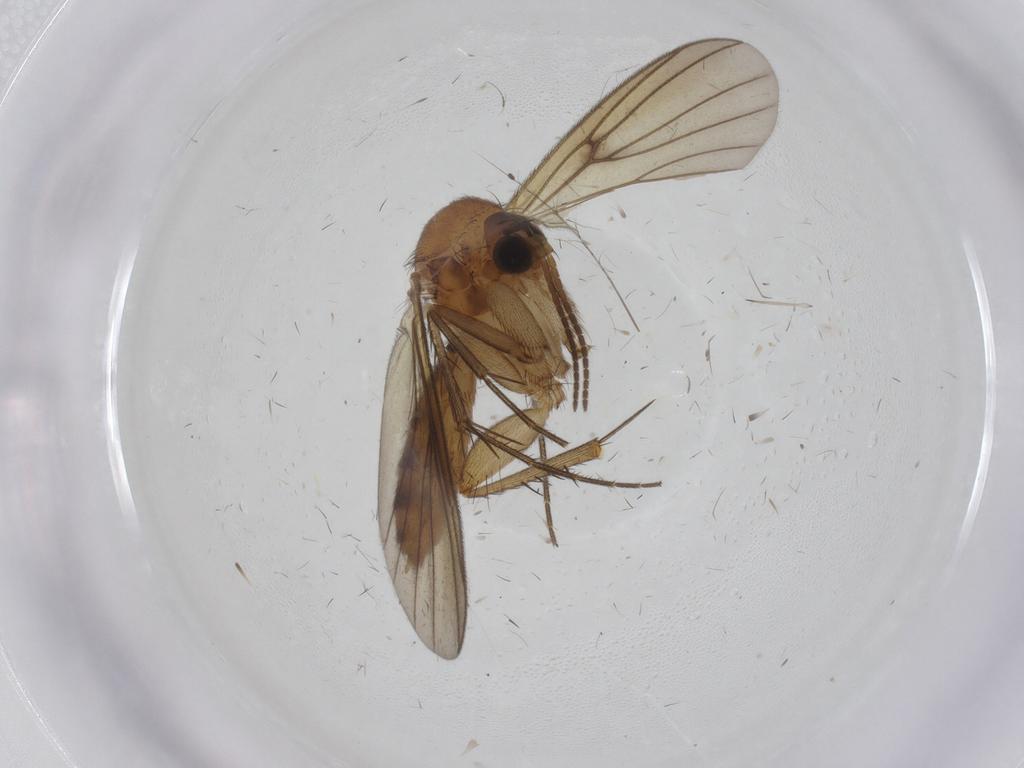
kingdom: Animalia
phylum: Arthropoda
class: Insecta
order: Diptera
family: Mycetophilidae
